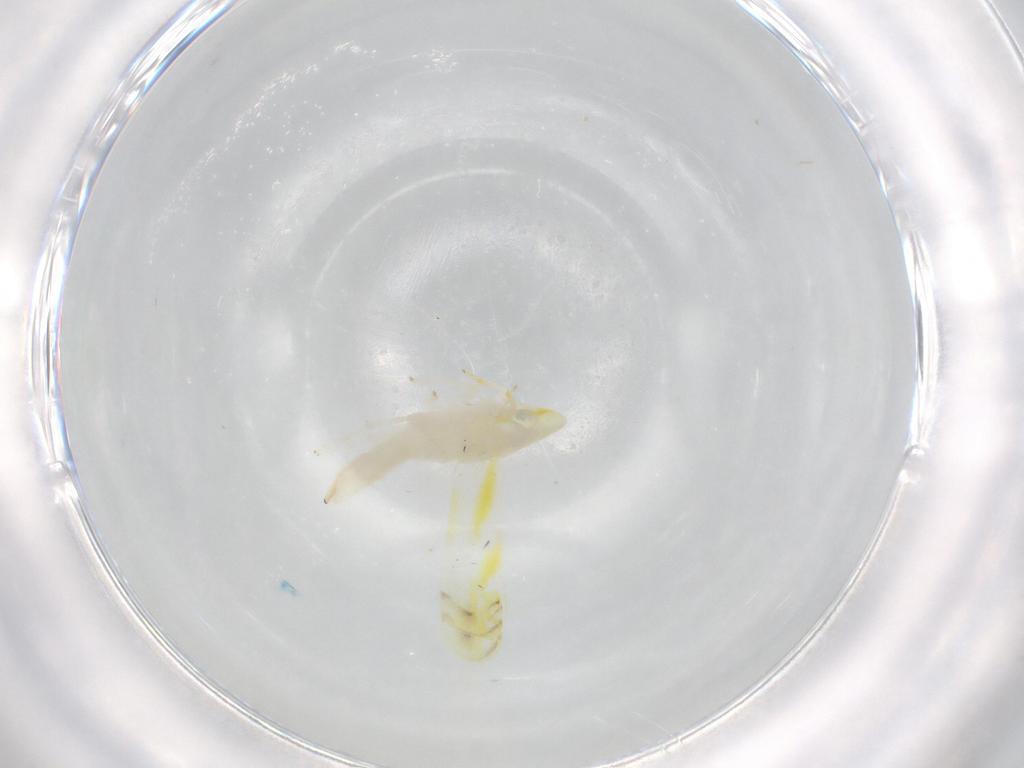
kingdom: Animalia
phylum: Arthropoda
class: Insecta
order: Hemiptera
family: Cicadellidae
